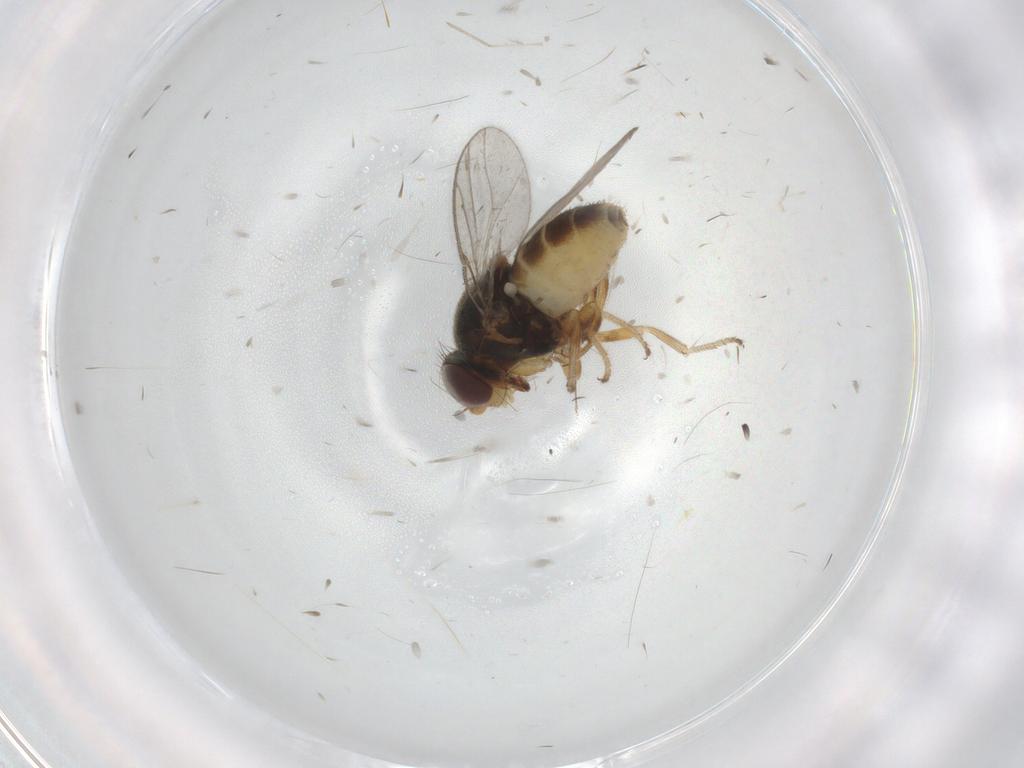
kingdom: Animalia
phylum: Arthropoda
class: Insecta
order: Diptera
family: Chloropidae
